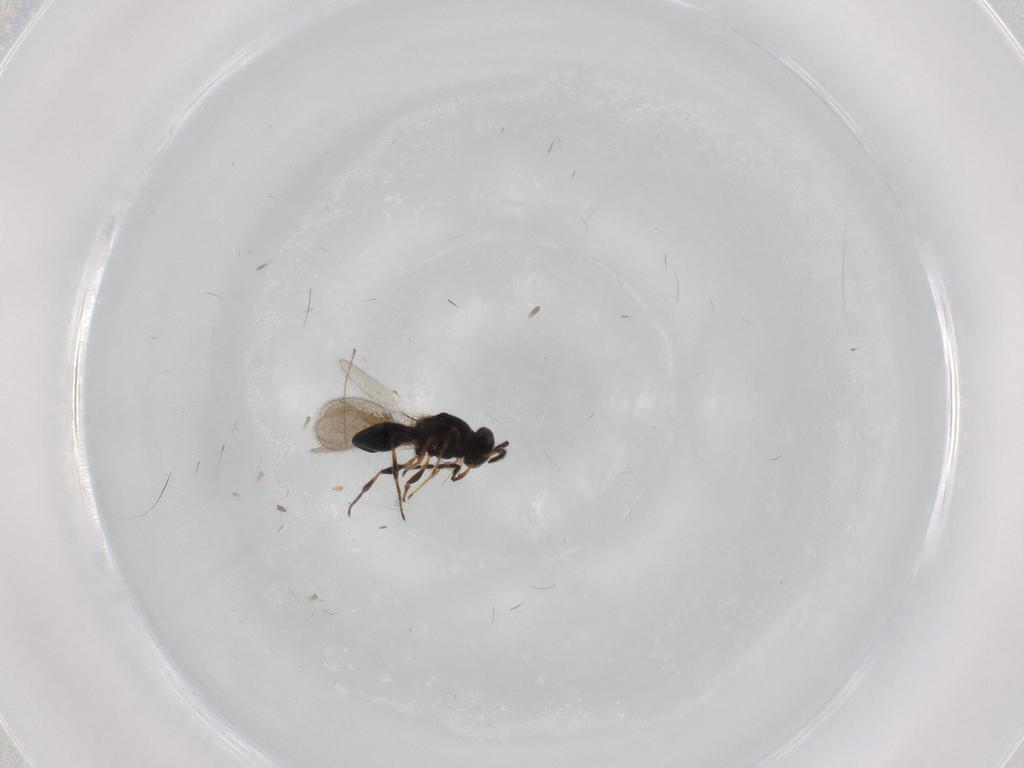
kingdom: Animalia
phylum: Arthropoda
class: Insecta
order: Hymenoptera
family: Platygastridae
